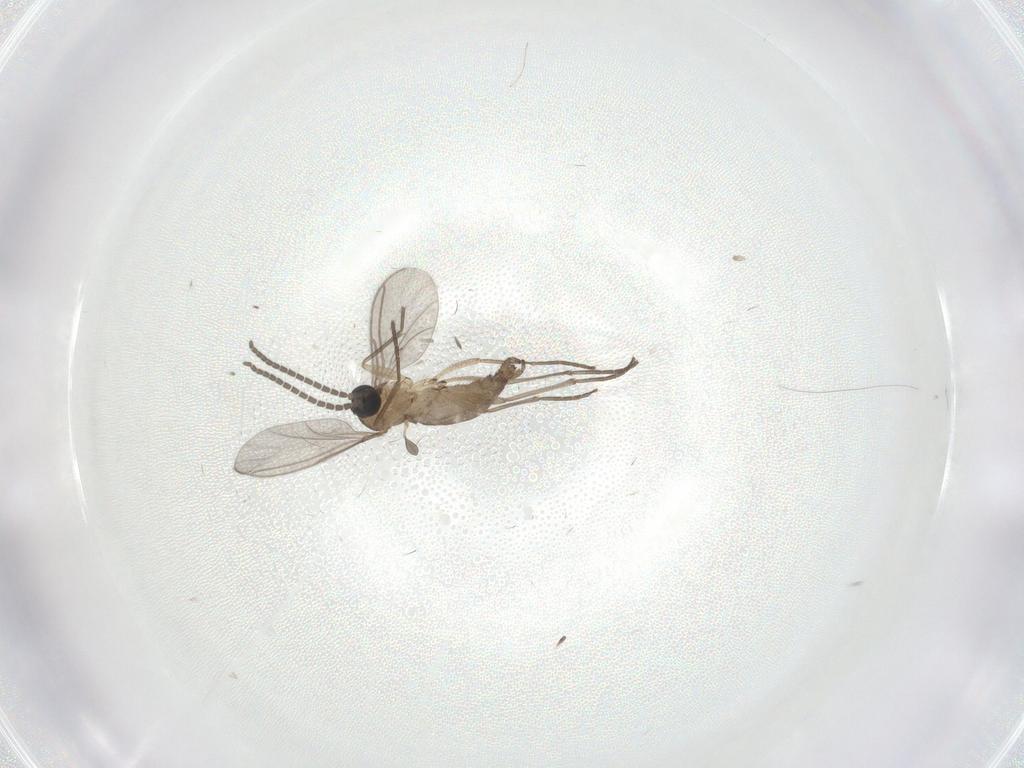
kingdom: Animalia
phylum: Arthropoda
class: Insecta
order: Diptera
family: Sciaridae
